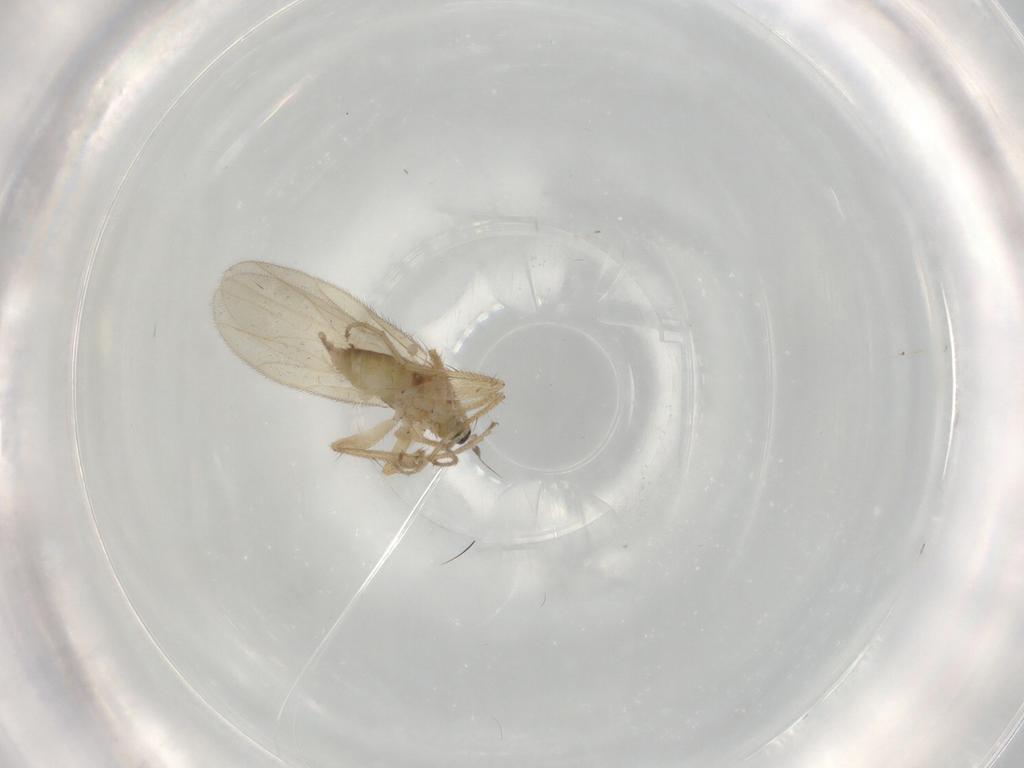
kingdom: Animalia
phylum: Arthropoda
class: Insecta
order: Diptera
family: Hybotidae
